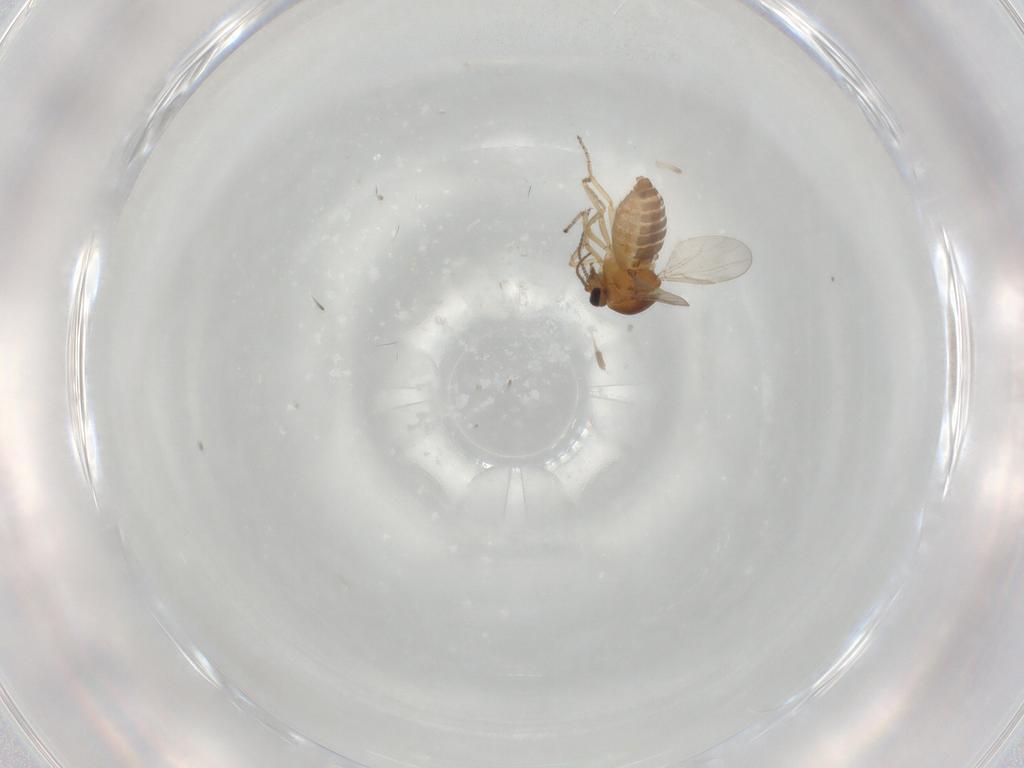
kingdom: Animalia
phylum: Arthropoda
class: Insecta
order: Diptera
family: Ceratopogonidae
